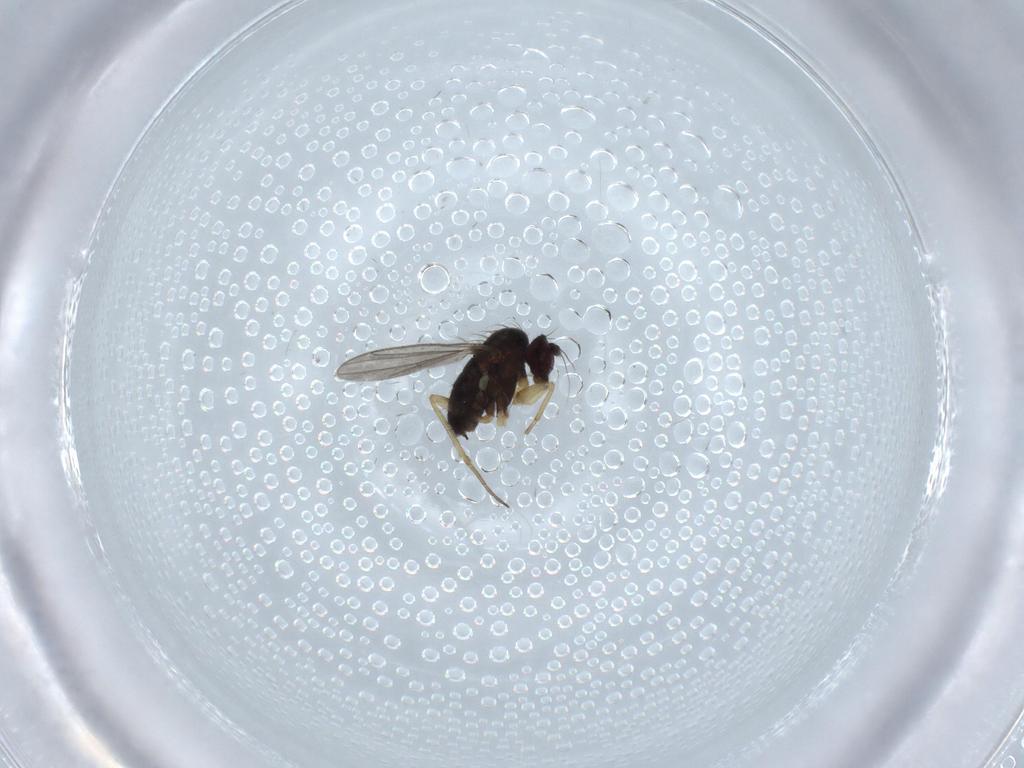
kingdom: Animalia
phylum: Arthropoda
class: Insecta
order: Diptera
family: Dolichopodidae
